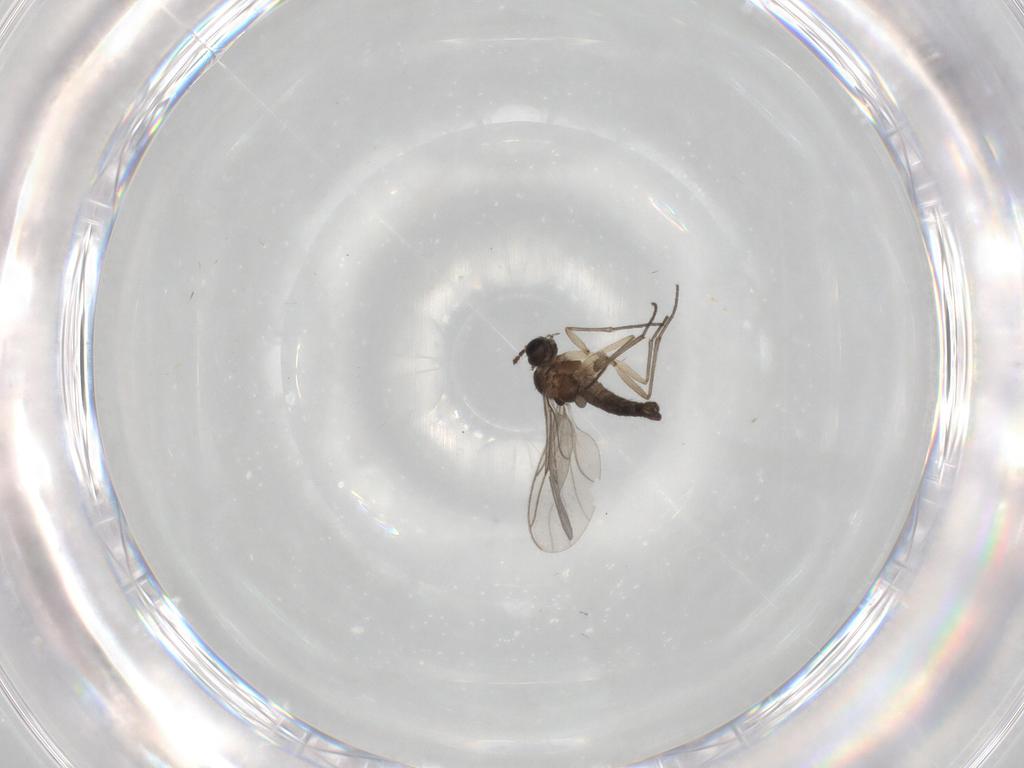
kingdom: Animalia
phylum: Arthropoda
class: Insecta
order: Diptera
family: Sciaridae
